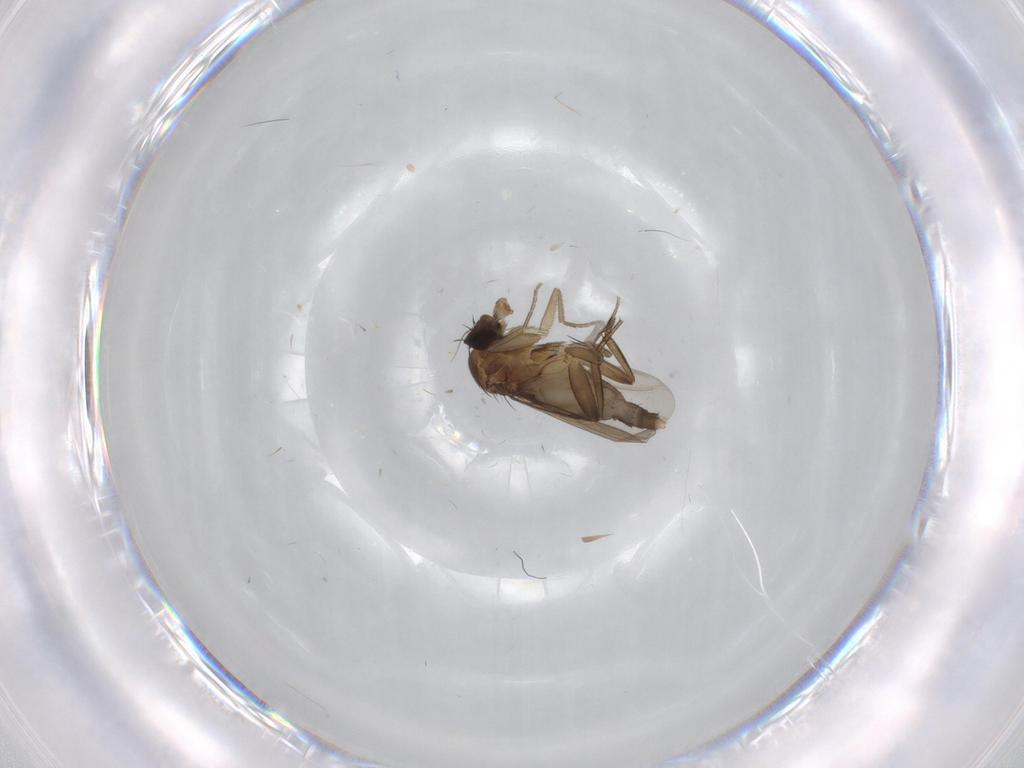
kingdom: Animalia
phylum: Arthropoda
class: Insecta
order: Diptera
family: Phoridae
